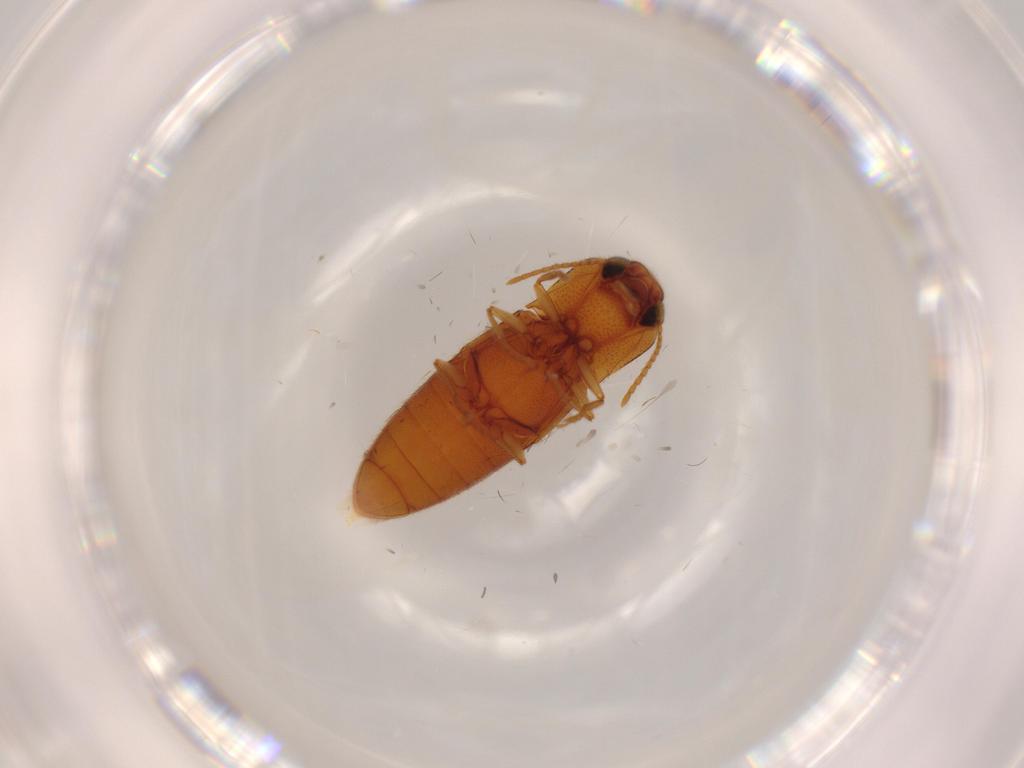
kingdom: Animalia
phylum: Arthropoda
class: Insecta
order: Coleoptera
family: Elateridae
